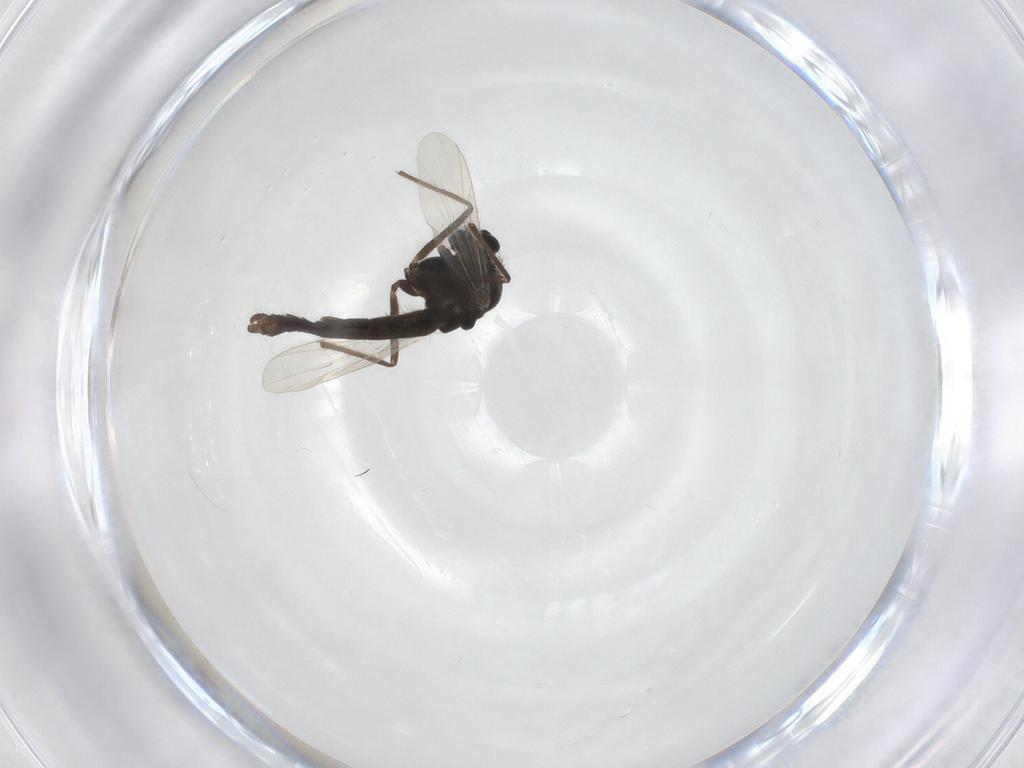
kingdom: Animalia
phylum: Arthropoda
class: Insecta
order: Diptera
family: Chironomidae
